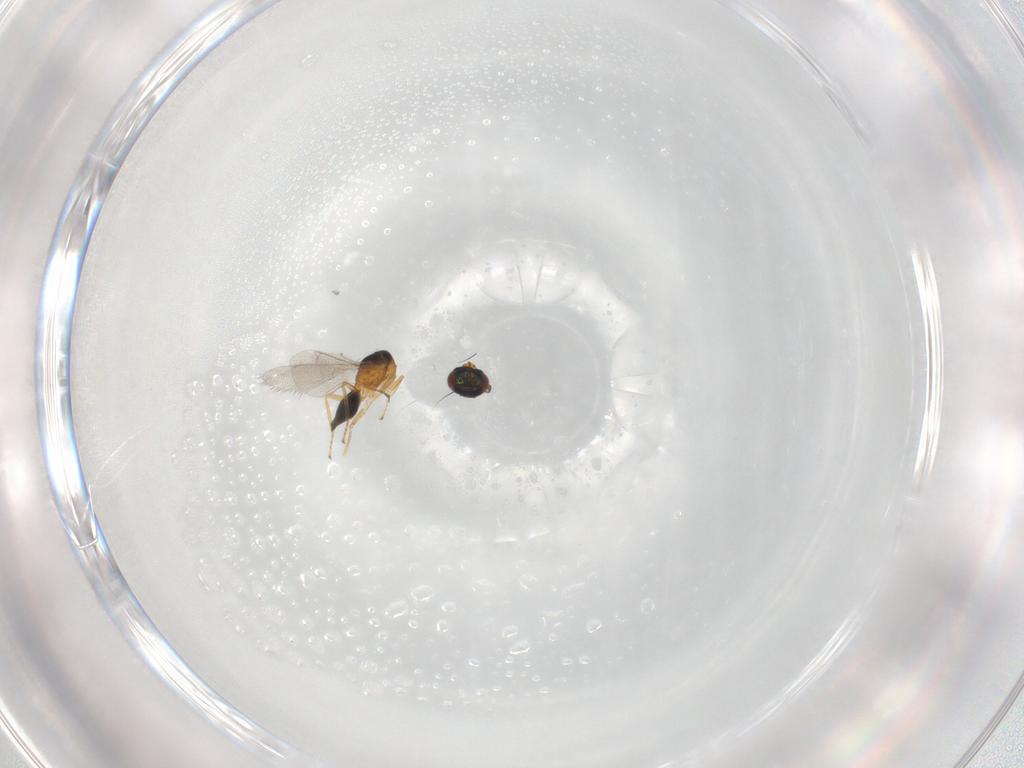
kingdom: Animalia
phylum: Arthropoda
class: Insecta
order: Hymenoptera
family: Eulophidae
